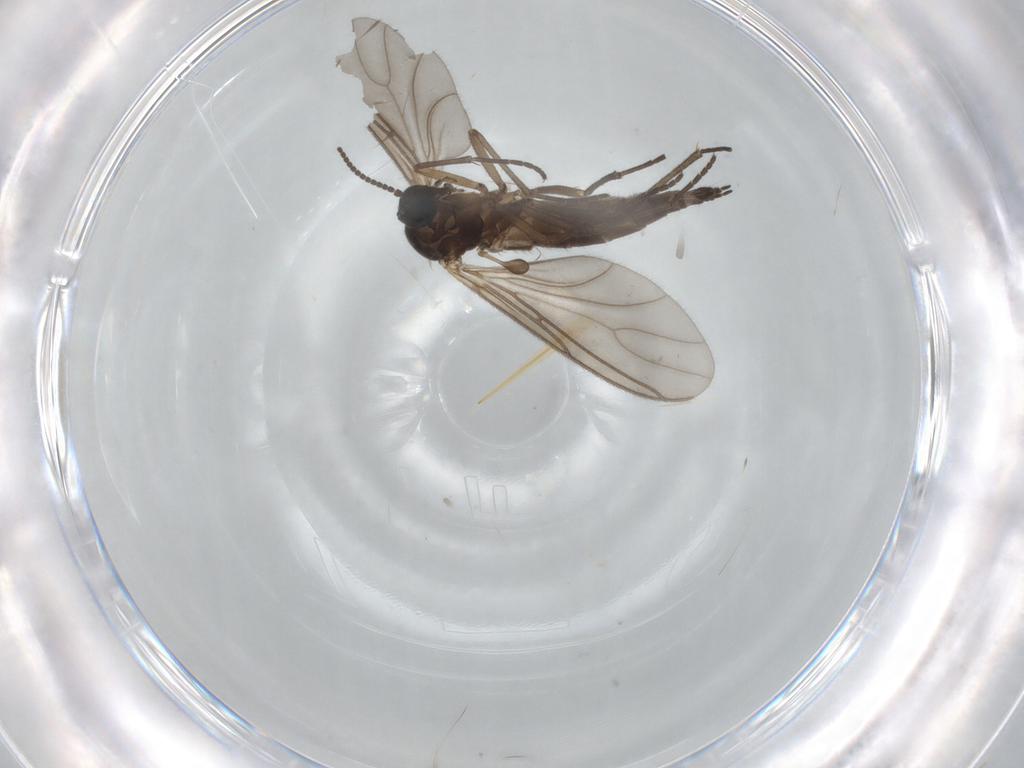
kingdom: Animalia
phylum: Arthropoda
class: Insecta
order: Diptera
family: Sciaridae
